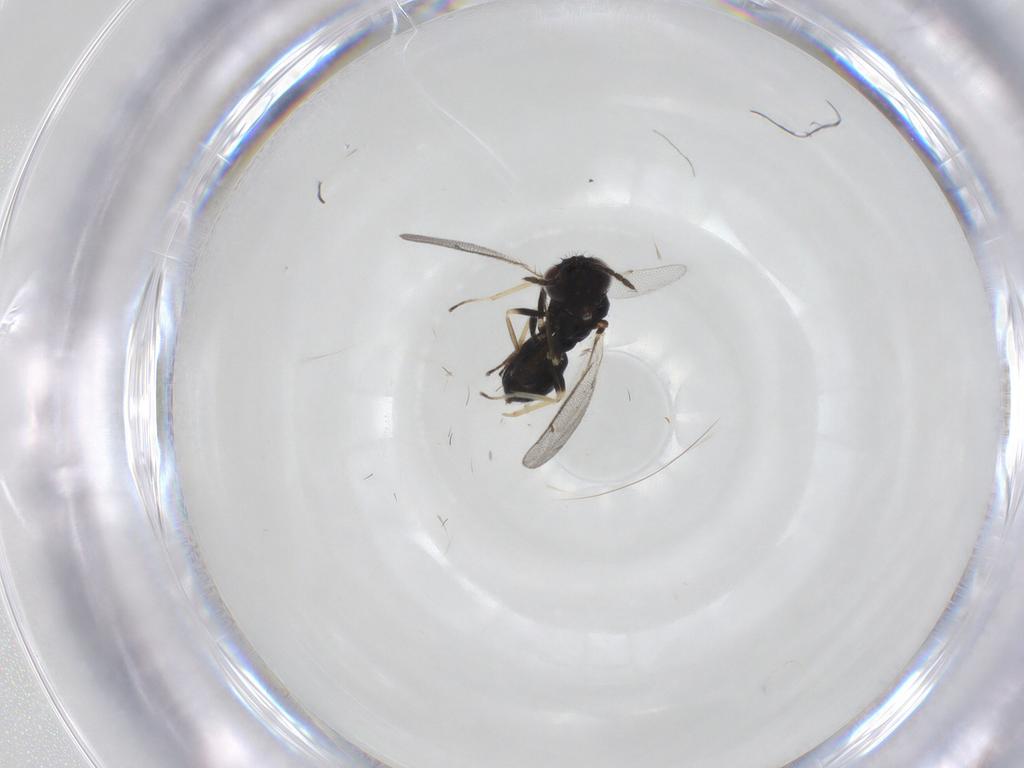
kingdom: Animalia
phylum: Arthropoda
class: Insecta
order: Hymenoptera
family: Eulophidae
